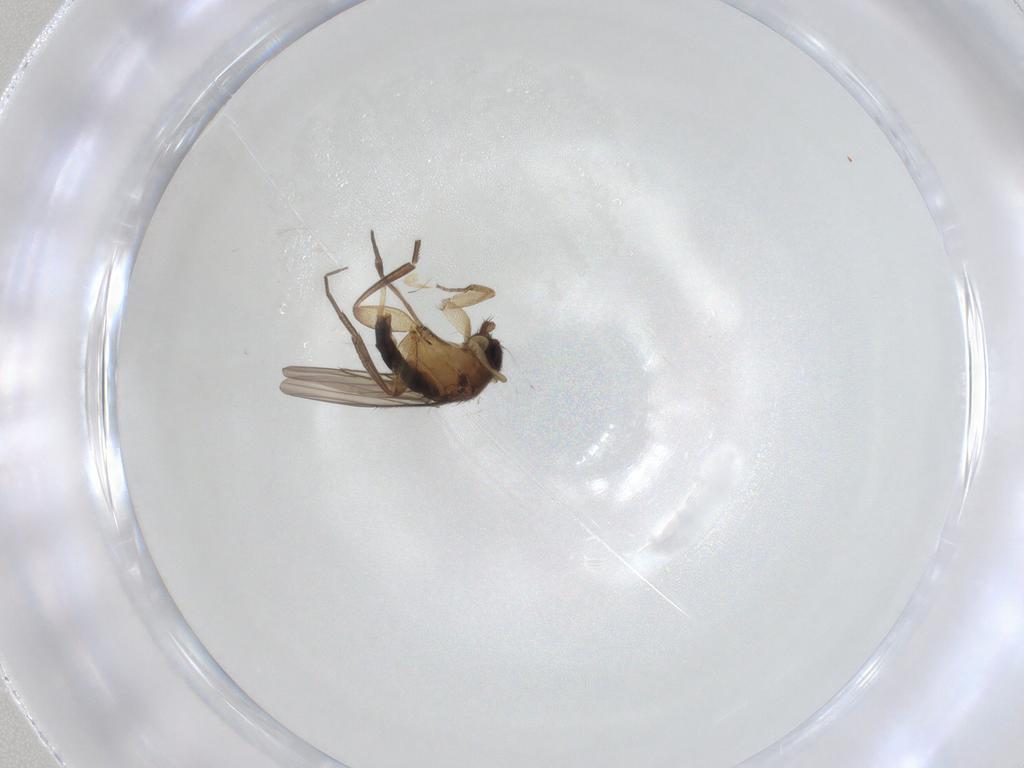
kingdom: Animalia
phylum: Arthropoda
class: Insecta
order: Diptera
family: Phoridae
